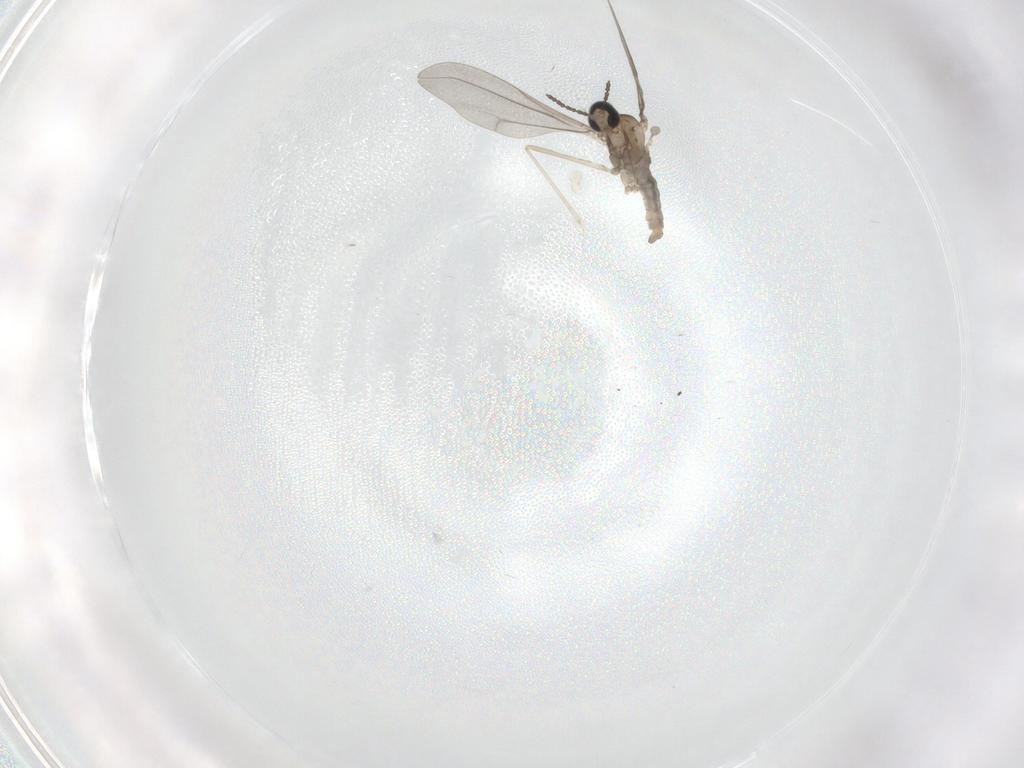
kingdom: Animalia
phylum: Arthropoda
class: Insecta
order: Diptera
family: Cecidomyiidae
